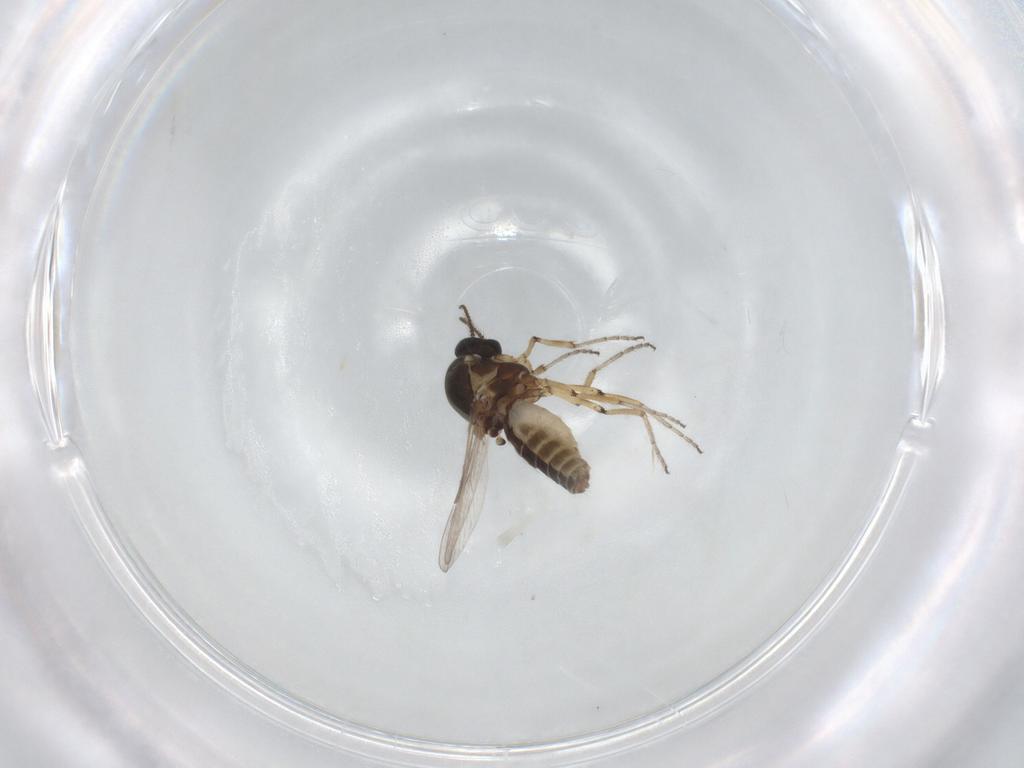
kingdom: Animalia
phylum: Arthropoda
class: Insecta
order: Diptera
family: Ceratopogonidae
